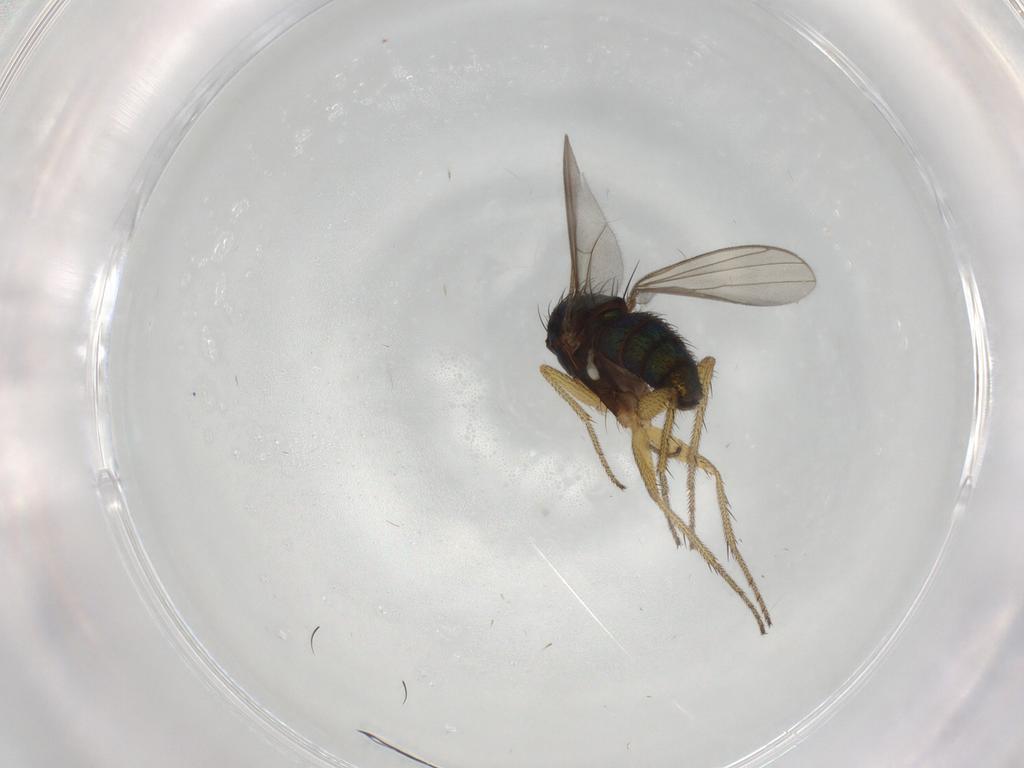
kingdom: Animalia
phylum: Arthropoda
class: Insecta
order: Diptera
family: Dolichopodidae
